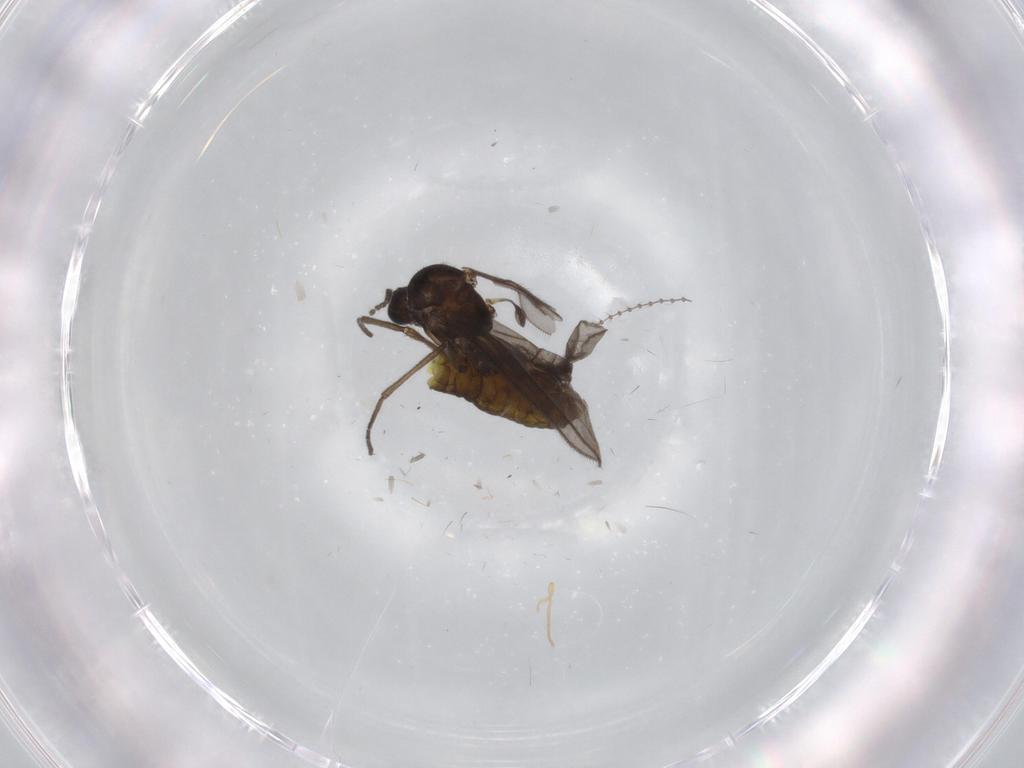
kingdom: Animalia
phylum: Arthropoda
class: Insecta
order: Diptera
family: Sciaridae
